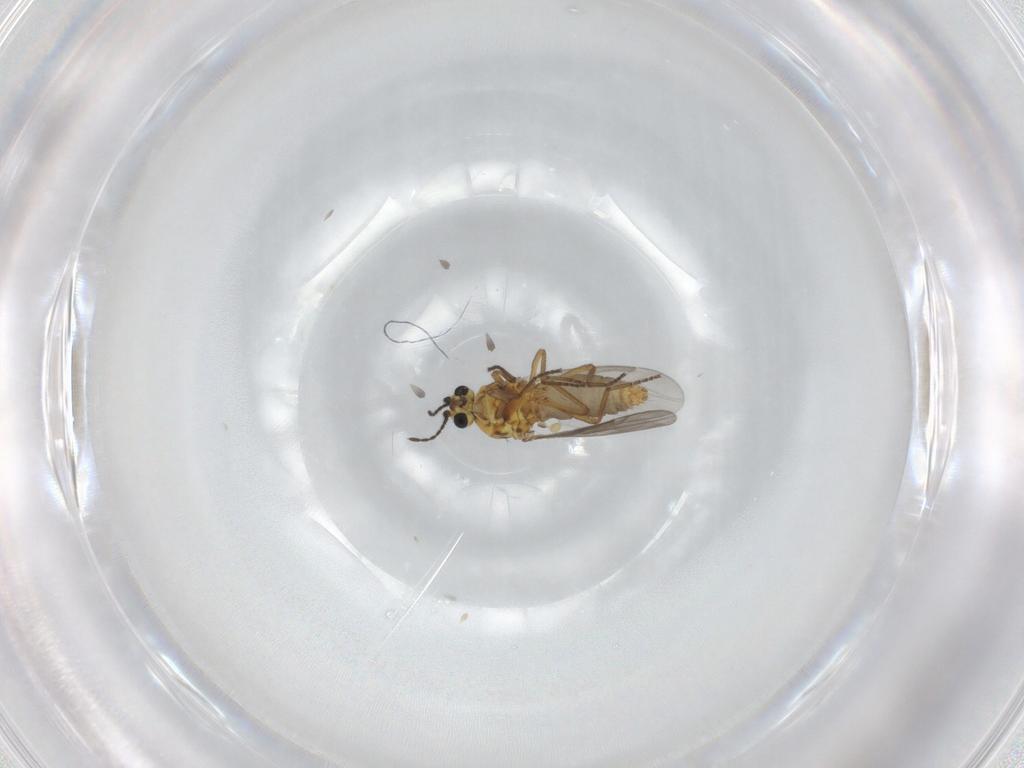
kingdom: Animalia
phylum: Arthropoda
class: Insecta
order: Diptera
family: Ceratopogonidae
